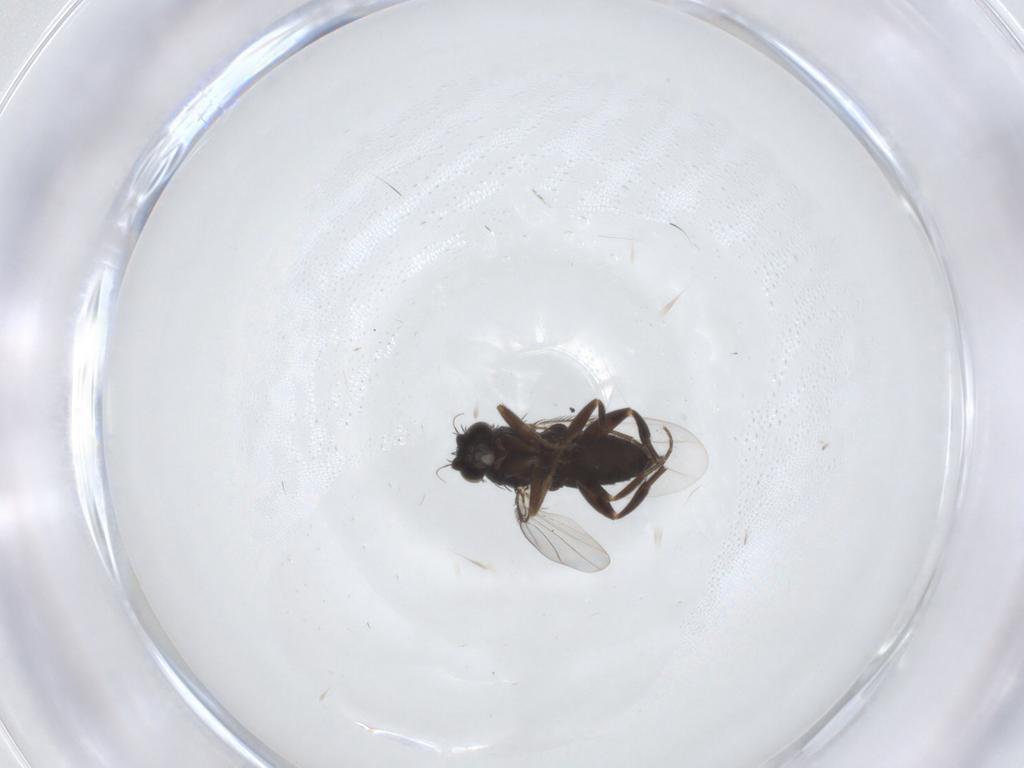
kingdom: Animalia
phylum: Arthropoda
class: Insecta
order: Diptera
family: Phoridae
